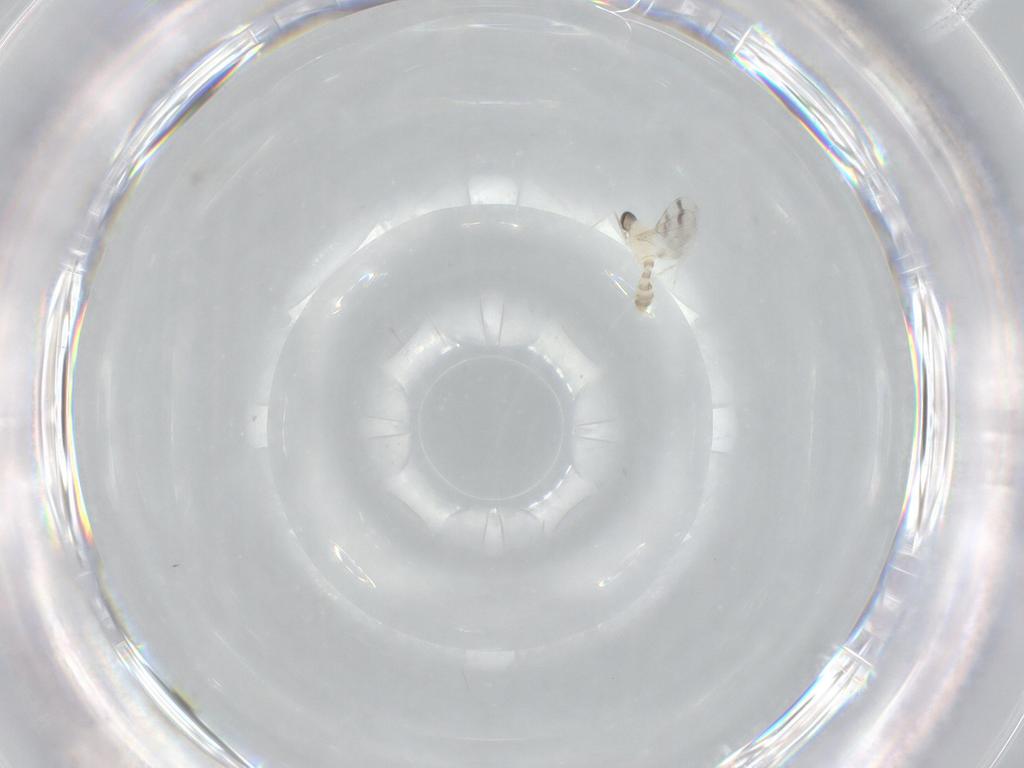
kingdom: Animalia
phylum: Arthropoda
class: Insecta
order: Diptera
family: Cecidomyiidae
